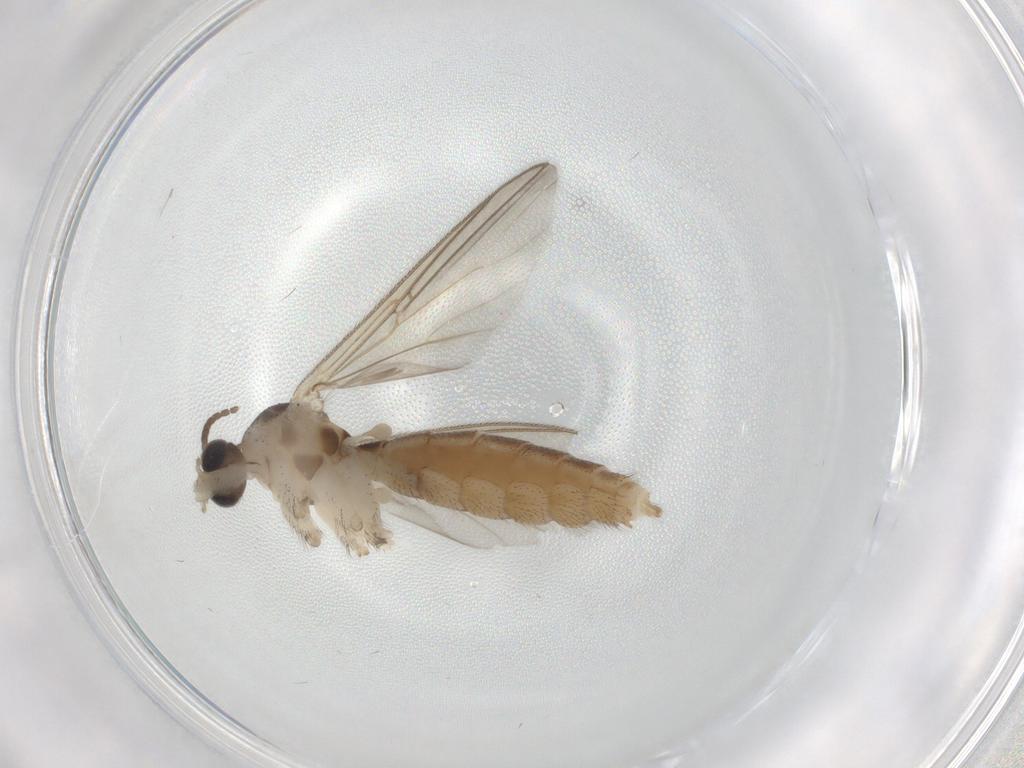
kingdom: Animalia
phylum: Arthropoda
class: Insecta
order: Diptera
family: Mycetophilidae
